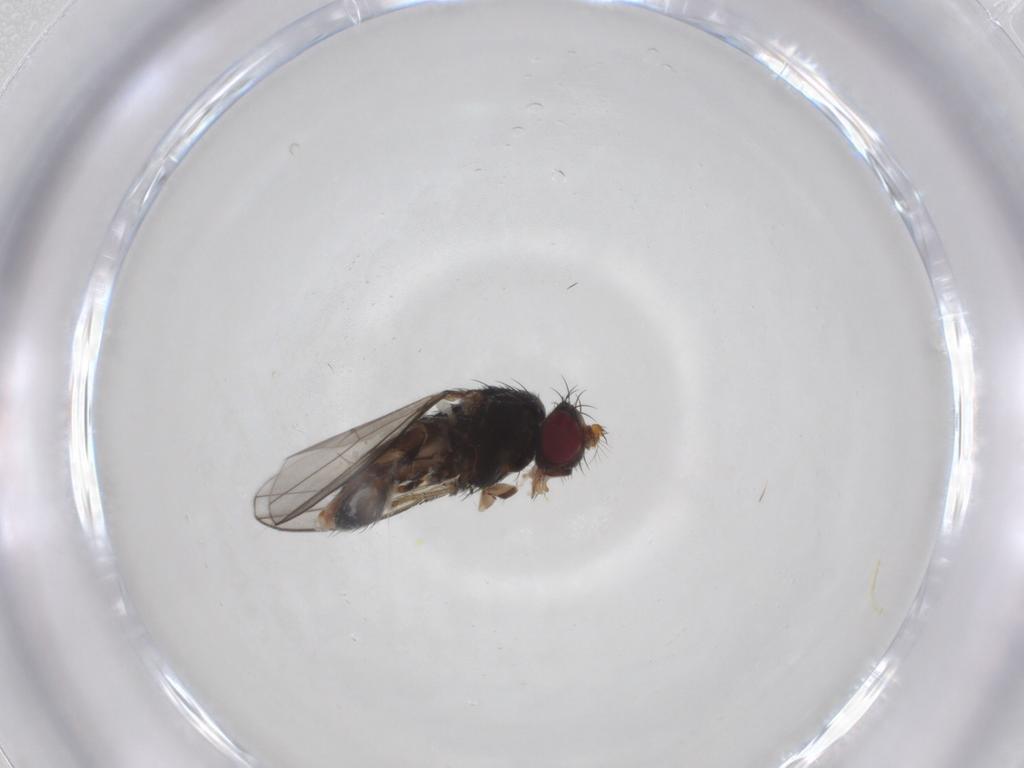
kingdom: Animalia
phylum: Arthropoda
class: Insecta
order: Diptera
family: Ephydridae
